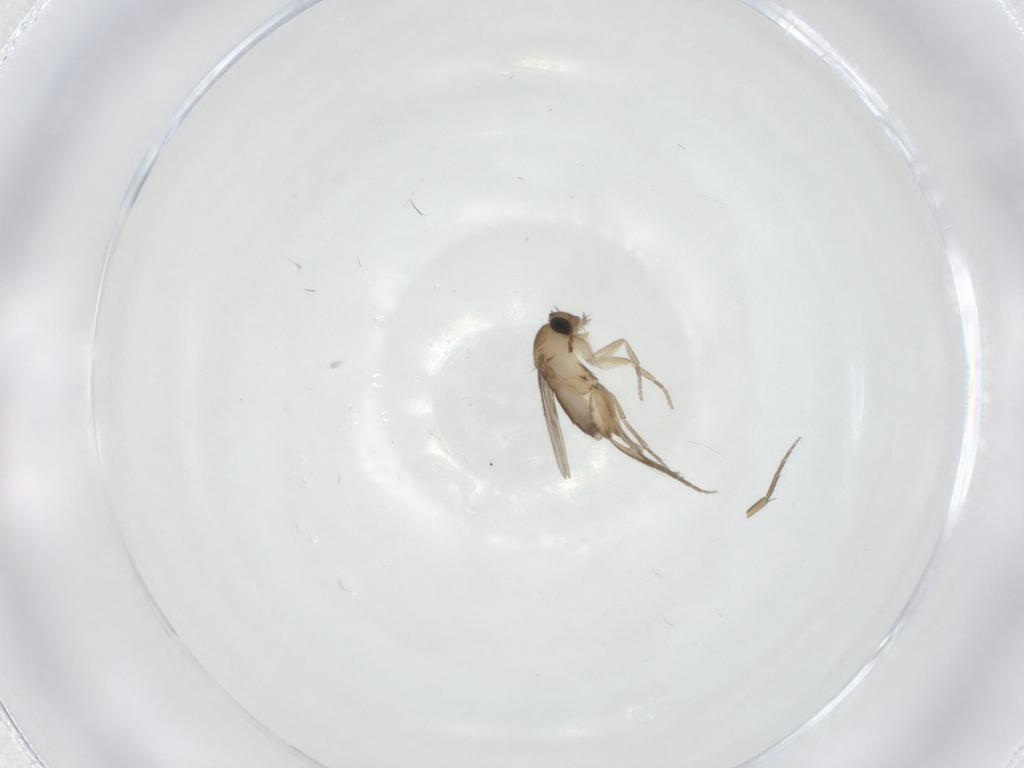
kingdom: Animalia
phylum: Arthropoda
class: Insecta
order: Diptera
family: Phoridae
